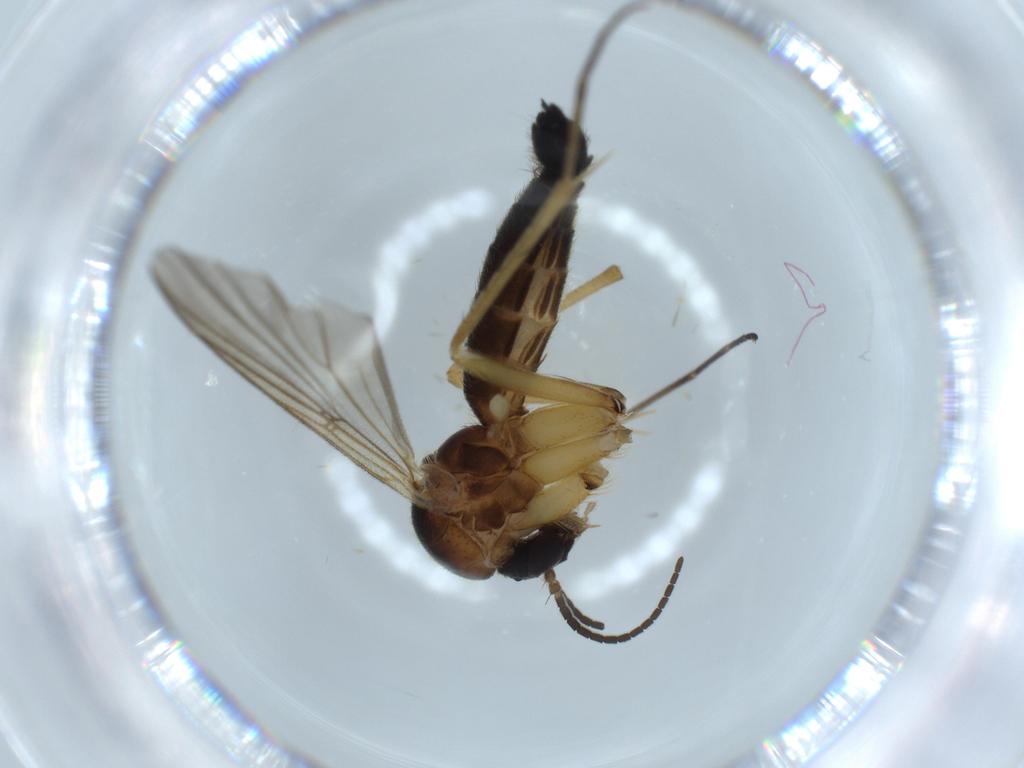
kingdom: Animalia
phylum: Arthropoda
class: Insecta
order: Diptera
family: Mycetophilidae
